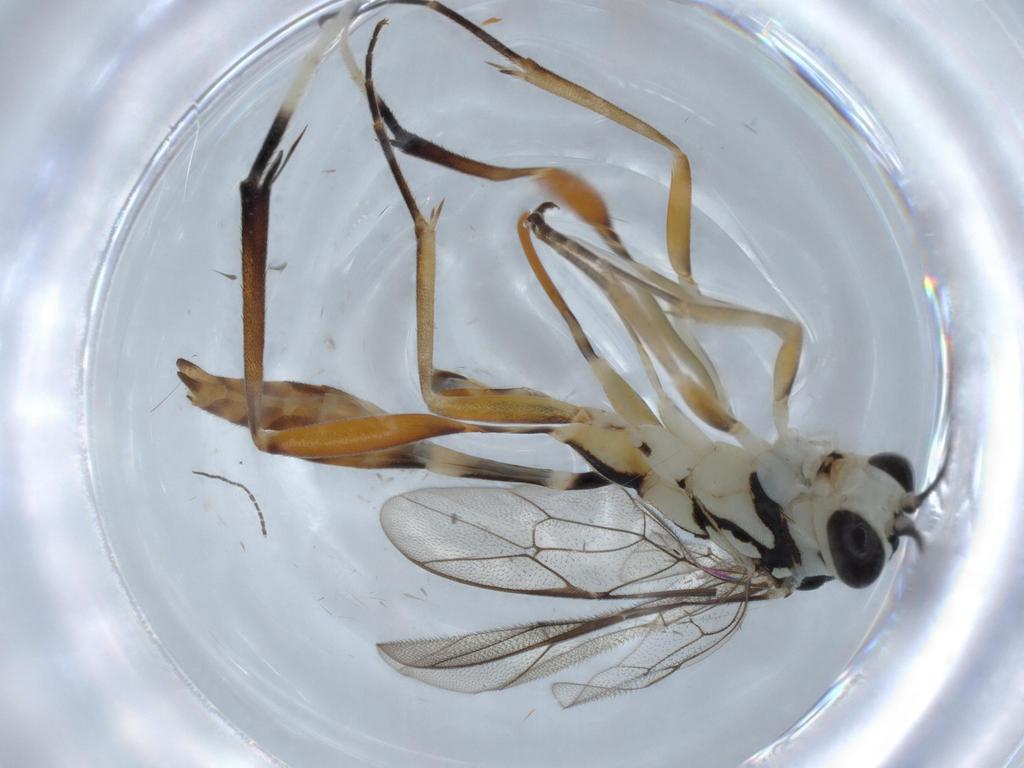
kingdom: Animalia
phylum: Arthropoda
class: Insecta
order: Hymenoptera
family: Aphelinidae
